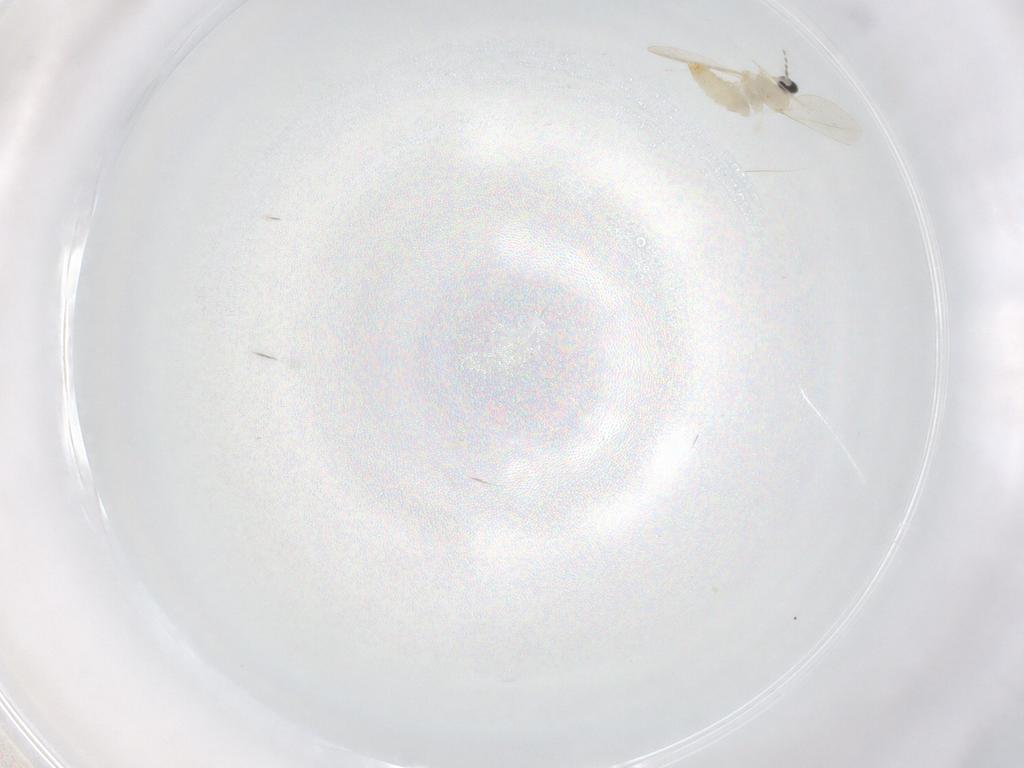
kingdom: Animalia
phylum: Arthropoda
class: Insecta
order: Diptera
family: Cecidomyiidae
